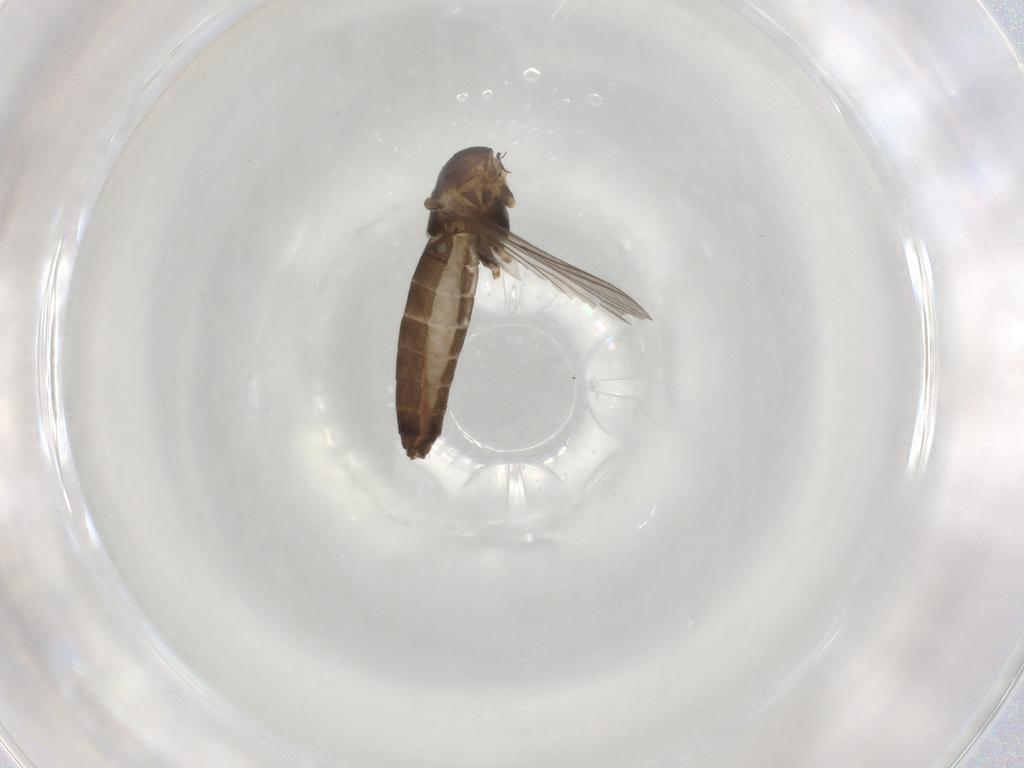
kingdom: Animalia
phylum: Arthropoda
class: Insecta
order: Diptera
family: Chironomidae
